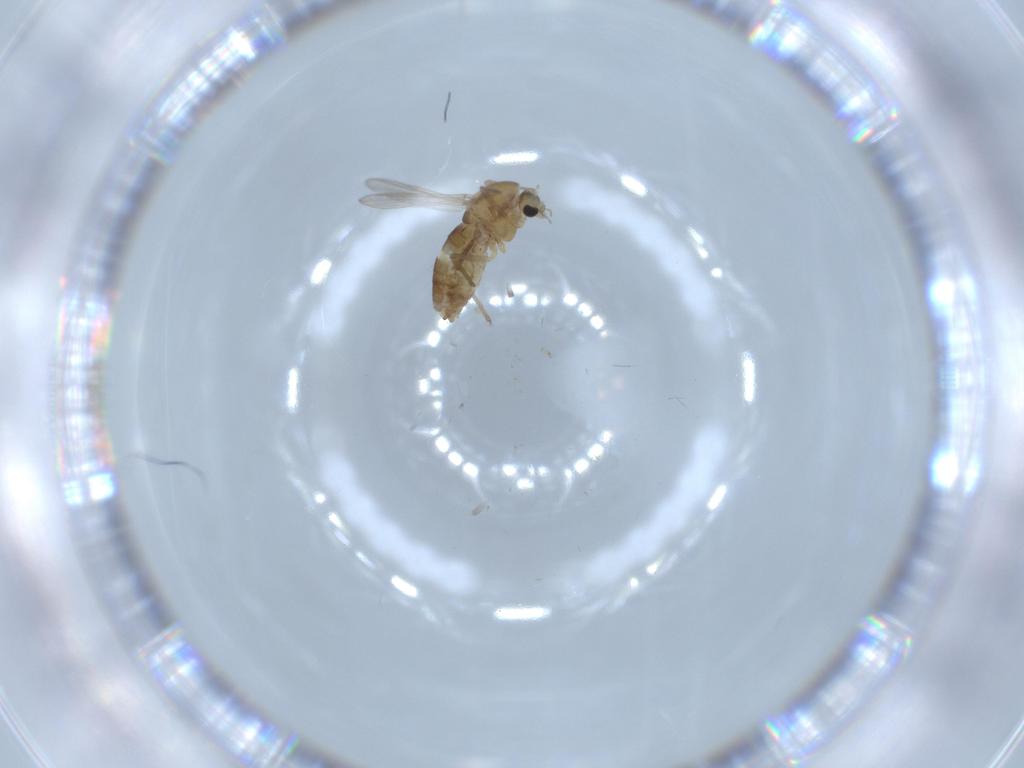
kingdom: Animalia
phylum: Arthropoda
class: Insecta
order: Diptera
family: Chironomidae
